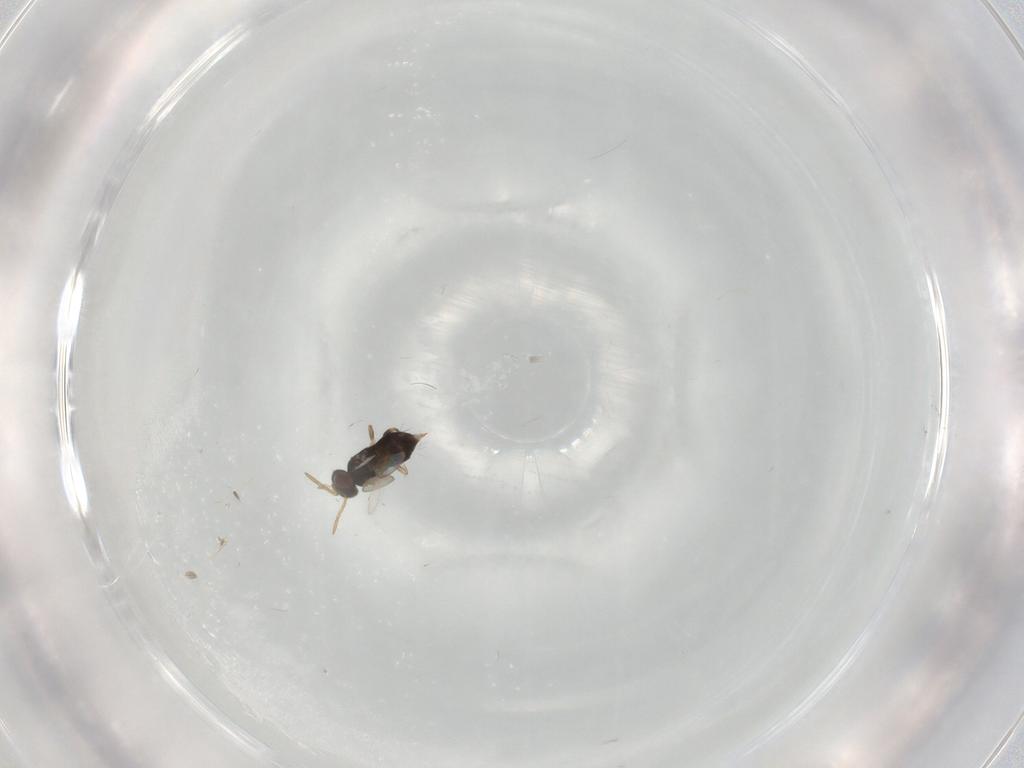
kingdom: Animalia
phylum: Arthropoda
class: Insecta
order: Hymenoptera
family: Aphelinidae
